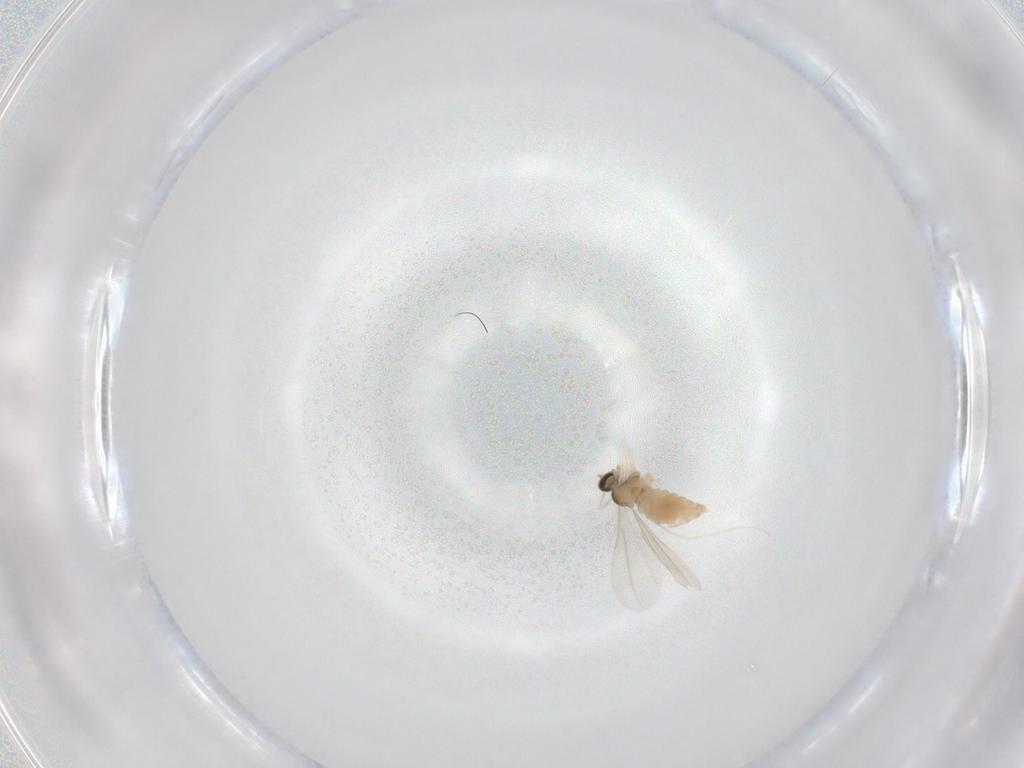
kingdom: Animalia
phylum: Arthropoda
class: Insecta
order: Diptera
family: Cecidomyiidae
